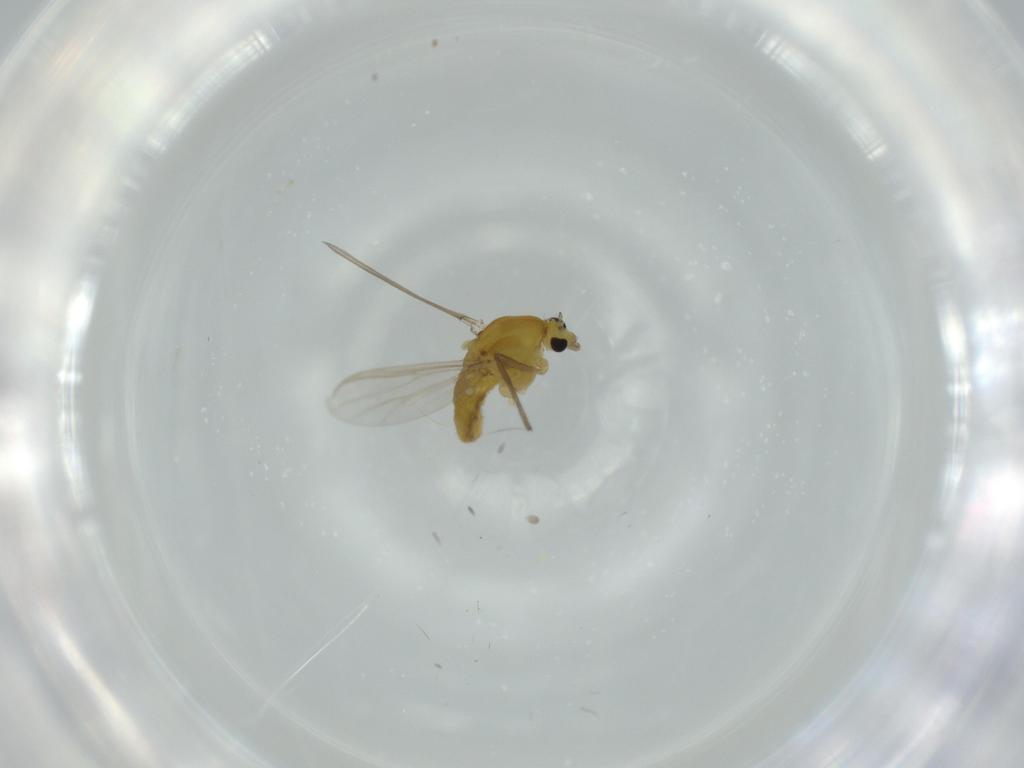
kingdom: Animalia
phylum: Arthropoda
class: Insecta
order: Diptera
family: Chironomidae
